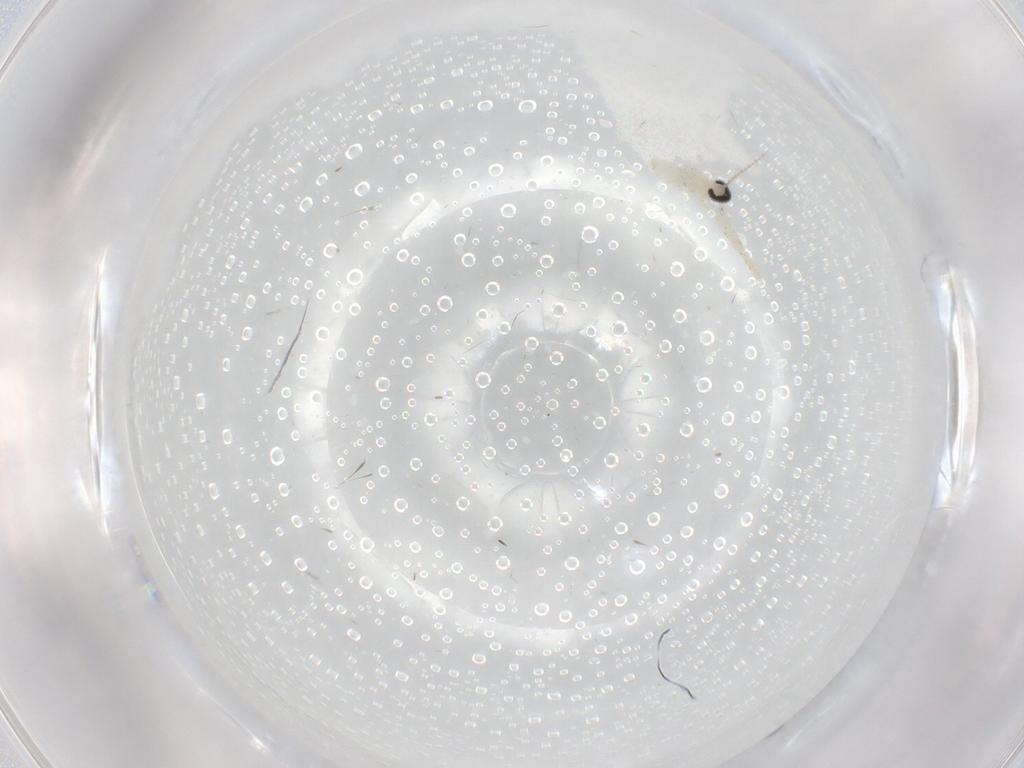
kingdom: Animalia
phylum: Arthropoda
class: Insecta
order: Diptera
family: Cecidomyiidae
